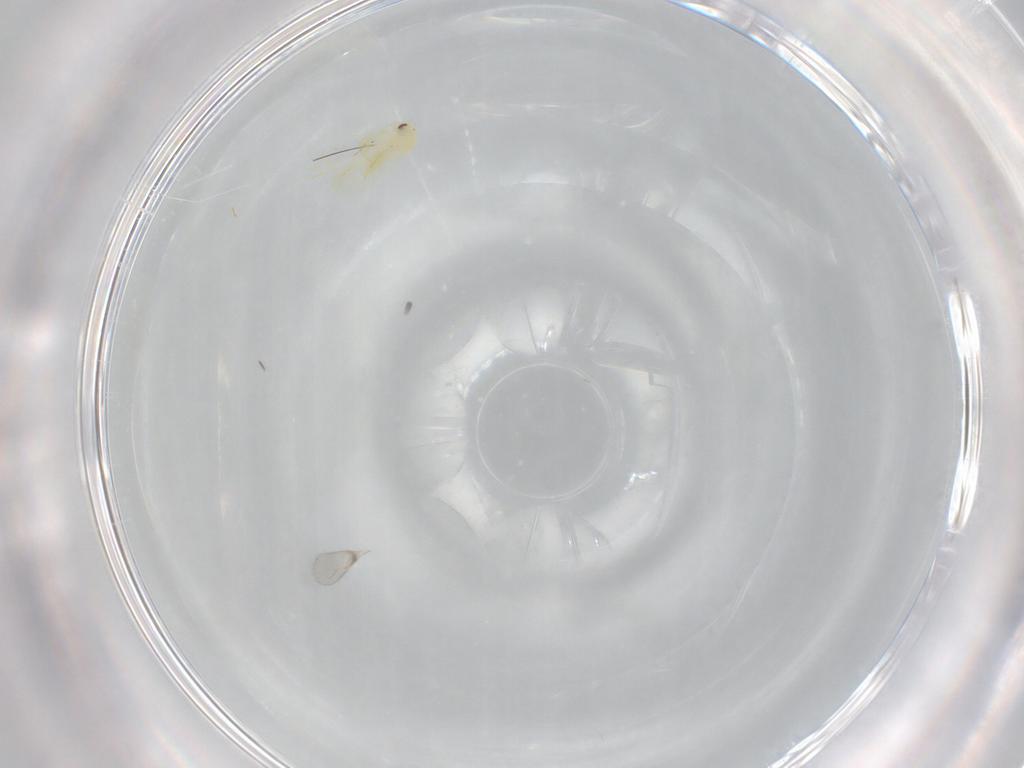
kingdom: Animalia
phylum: Arthropoda
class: Insecta
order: Hemiptera
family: Aleyrodidae
